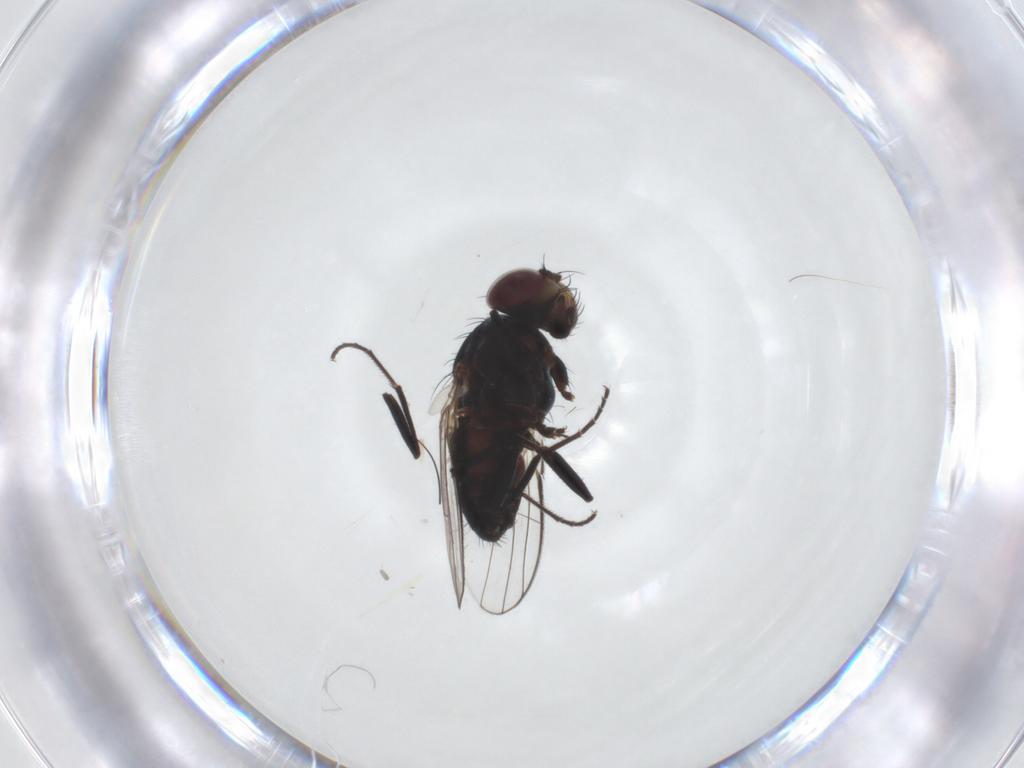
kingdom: Animalia
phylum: Arthropoda
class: Insecta
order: Diptera
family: Carnidae
